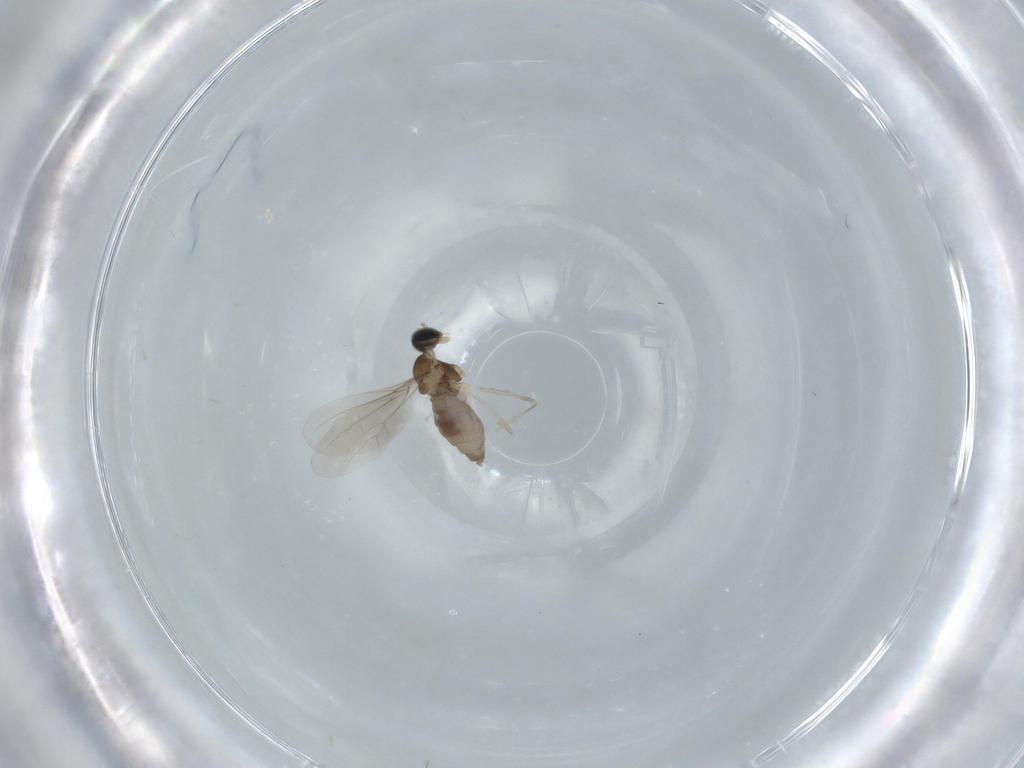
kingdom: Animalia
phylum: Arthropoda
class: Insecta
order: Diptera
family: Cecidomyiidae
